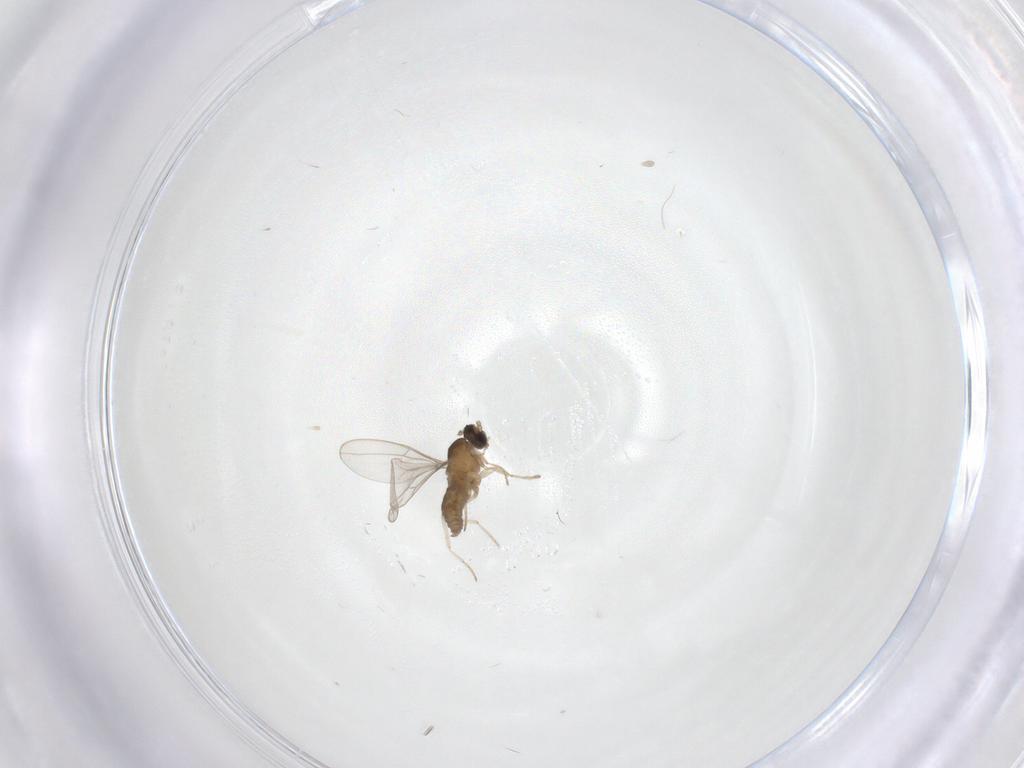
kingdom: Animalia
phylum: Arthropoda
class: Insecta
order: Diptera
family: Cecidomyiidae
